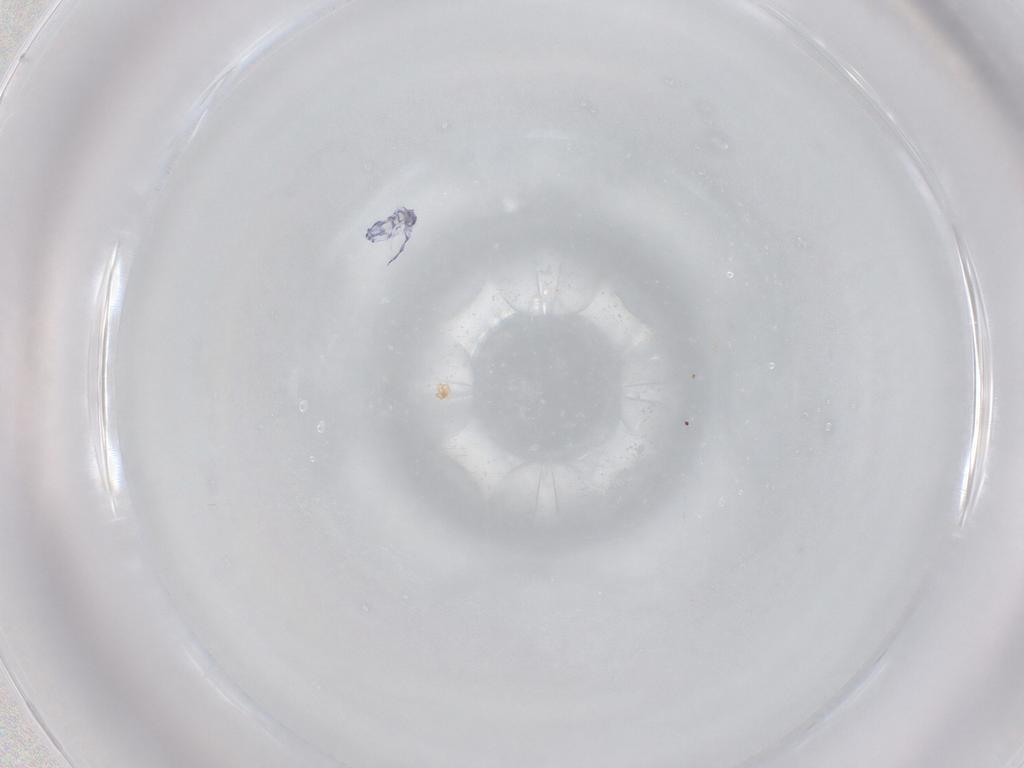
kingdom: Animalia
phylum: Arthropoda
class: Collembola
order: Entomobryomorpha
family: Entomobryidae
